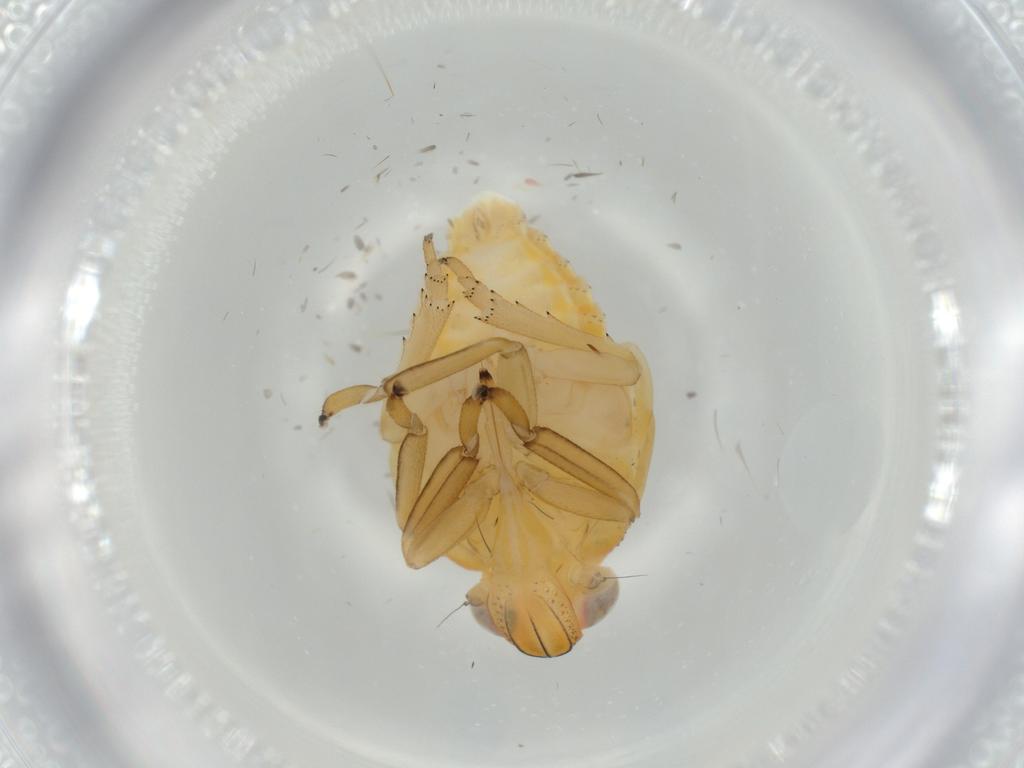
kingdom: Animalia
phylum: Arthropoda
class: Insecta
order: Hemiptera
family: Issidae
